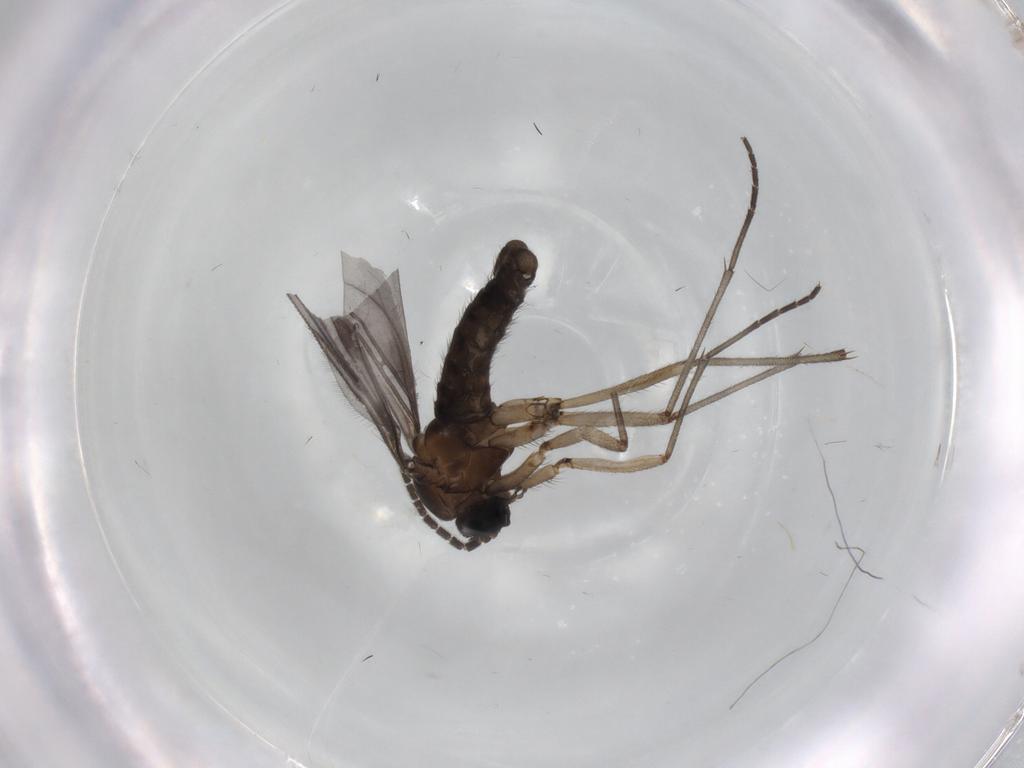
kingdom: Animalia
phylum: Arthropoda
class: Insecta
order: Diptera
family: Sciaridae
